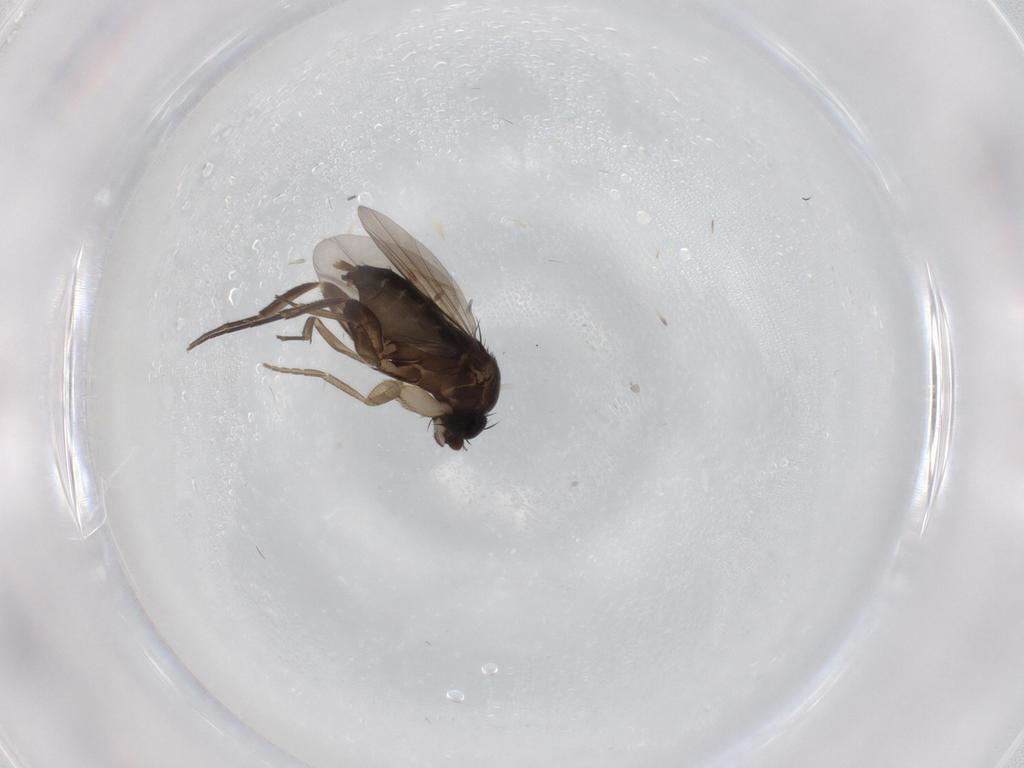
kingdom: Animalia
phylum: Arthropoda
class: Insecta
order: Diptera
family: Phoridae
